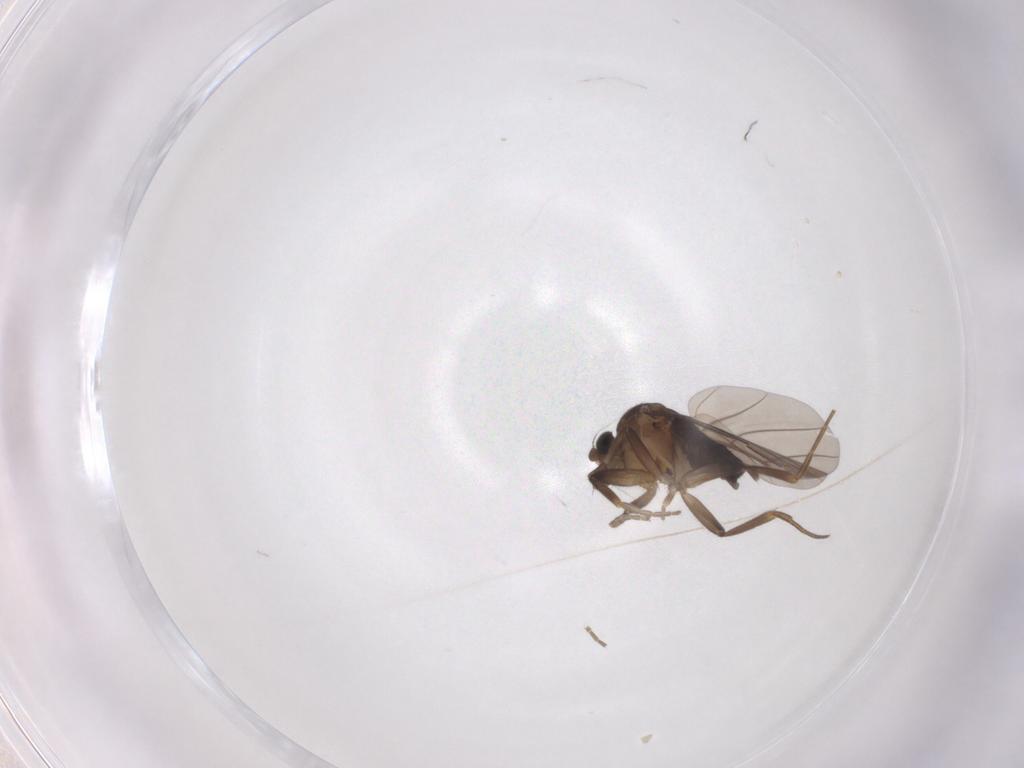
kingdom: Animalia
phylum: Arthropoda
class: Insecta
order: Diptera
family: Phoridae
